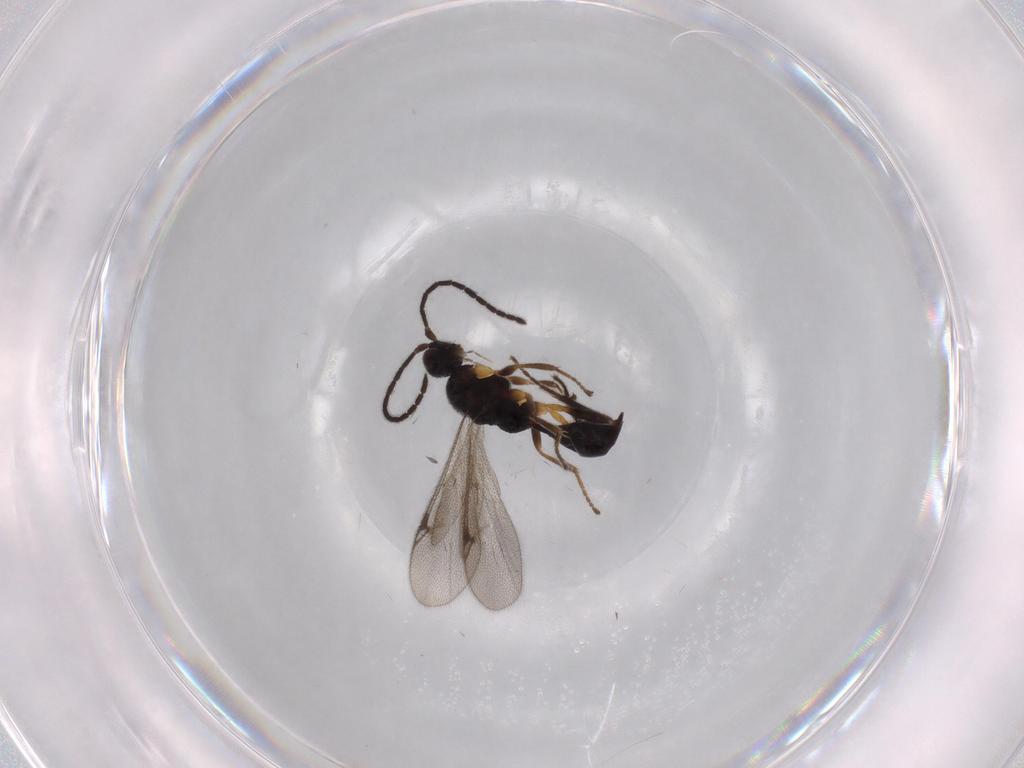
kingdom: Animalia
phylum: Arthropoda
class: Insecta
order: Hymenoptera
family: Proctotrupidae
